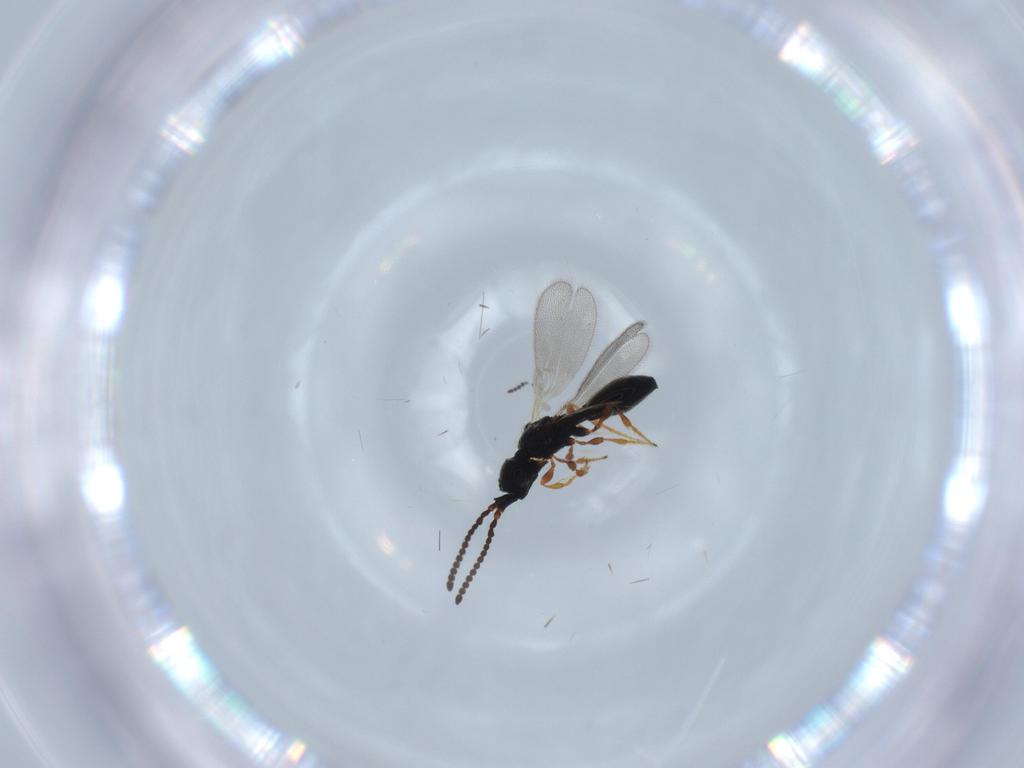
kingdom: Animalia
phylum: Arthropoda
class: Insecta
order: Hymenoptera
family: Bethylidae
